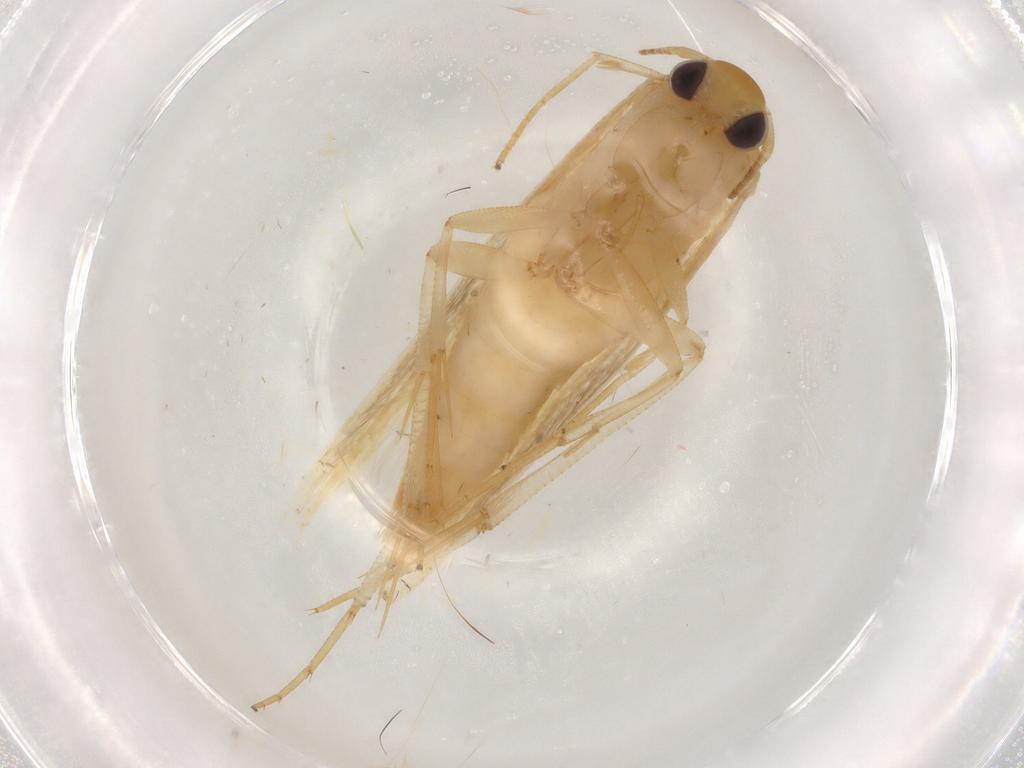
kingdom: Animalia
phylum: Arthropoda
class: Insecta
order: Lepidoptera
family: Stathmopodidae
